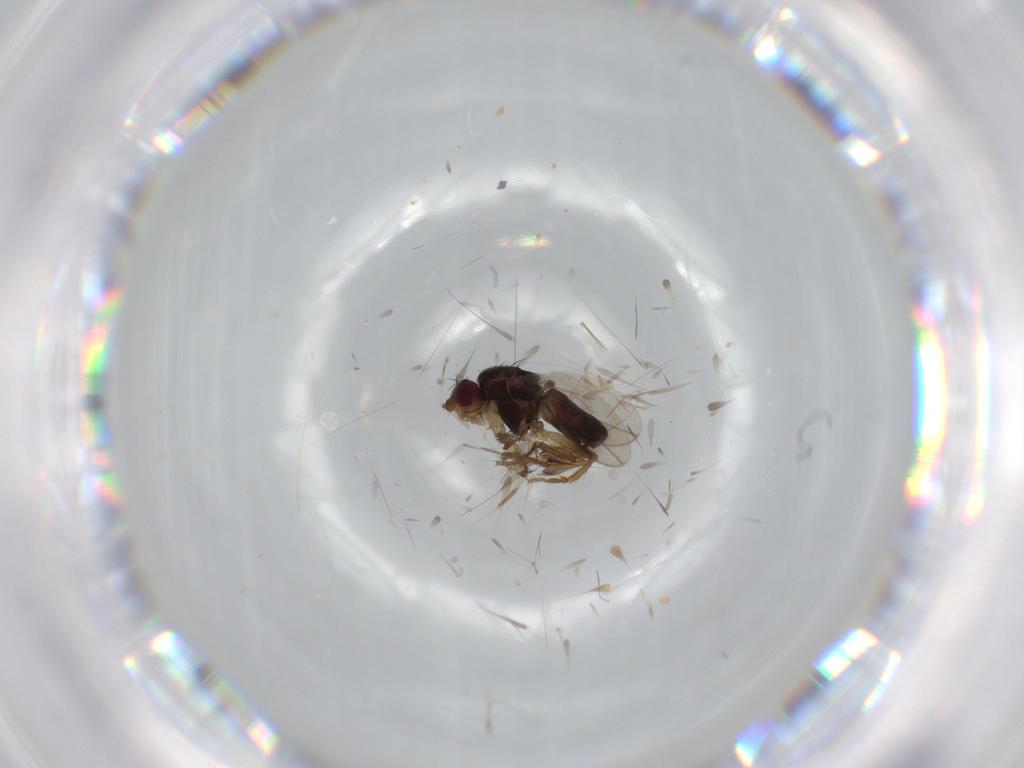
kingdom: Animalia
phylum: Arthropoda
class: Insecta
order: Diptera
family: Sphaeroceridae
